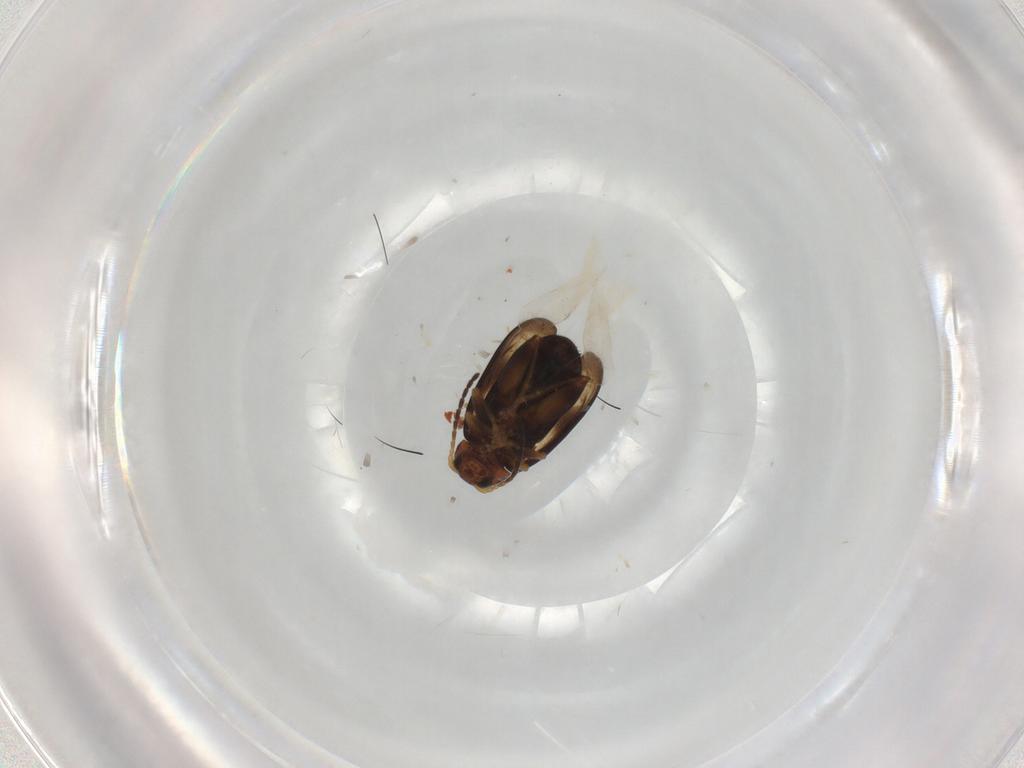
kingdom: Animalia
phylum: Arthropoda
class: Insecta
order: Coleoptera
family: Chrysomelidae
